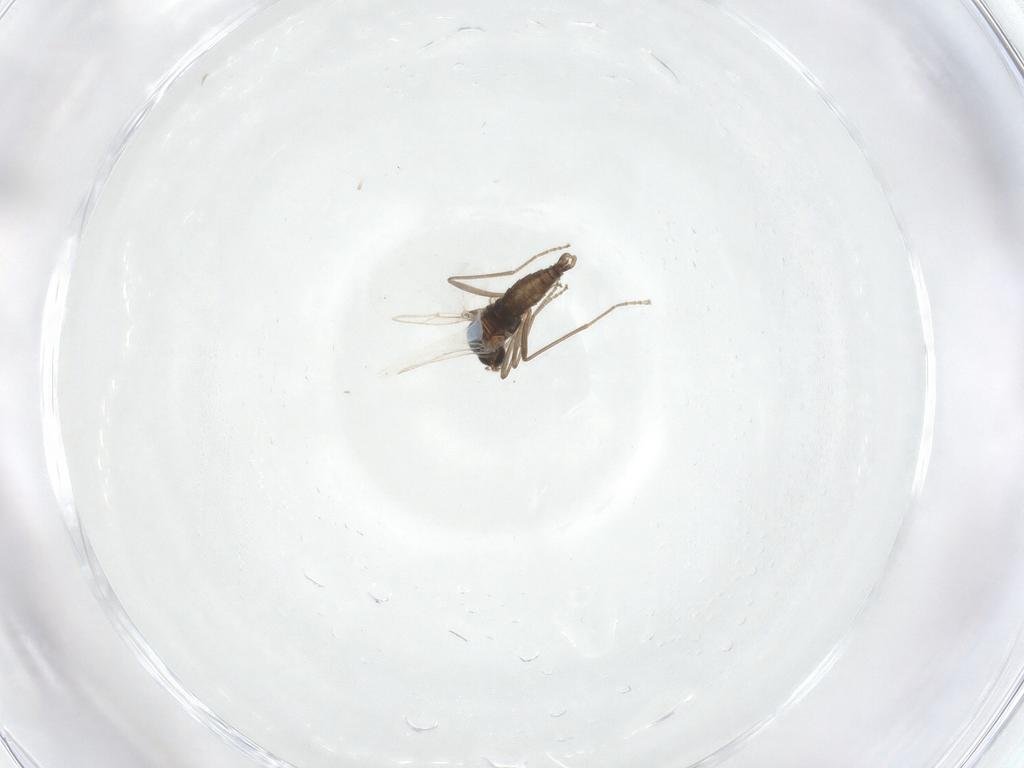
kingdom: Animalia
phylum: Arthropoda
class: Insecta
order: Diptera
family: Cecidomyiidae
